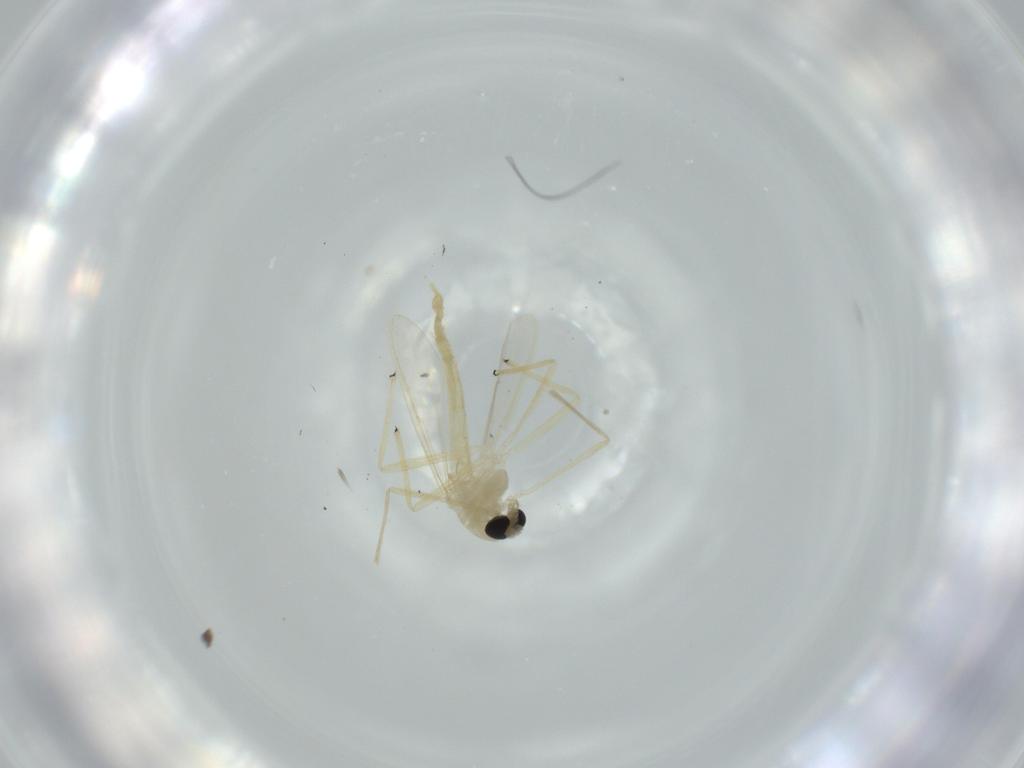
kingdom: Animalia
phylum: Arthropoda
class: Insecta
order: Diptera
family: Chironomidae
